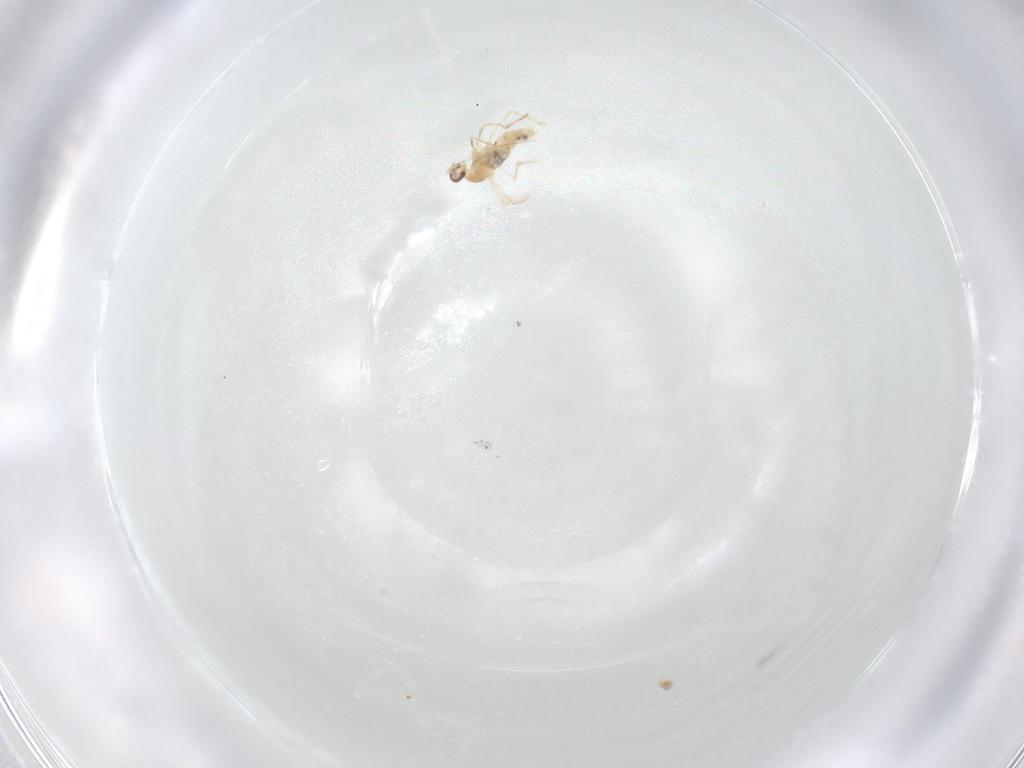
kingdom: Animalia
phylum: Arthropoda
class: Insecta
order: Diptera
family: Cecidomyiidae
